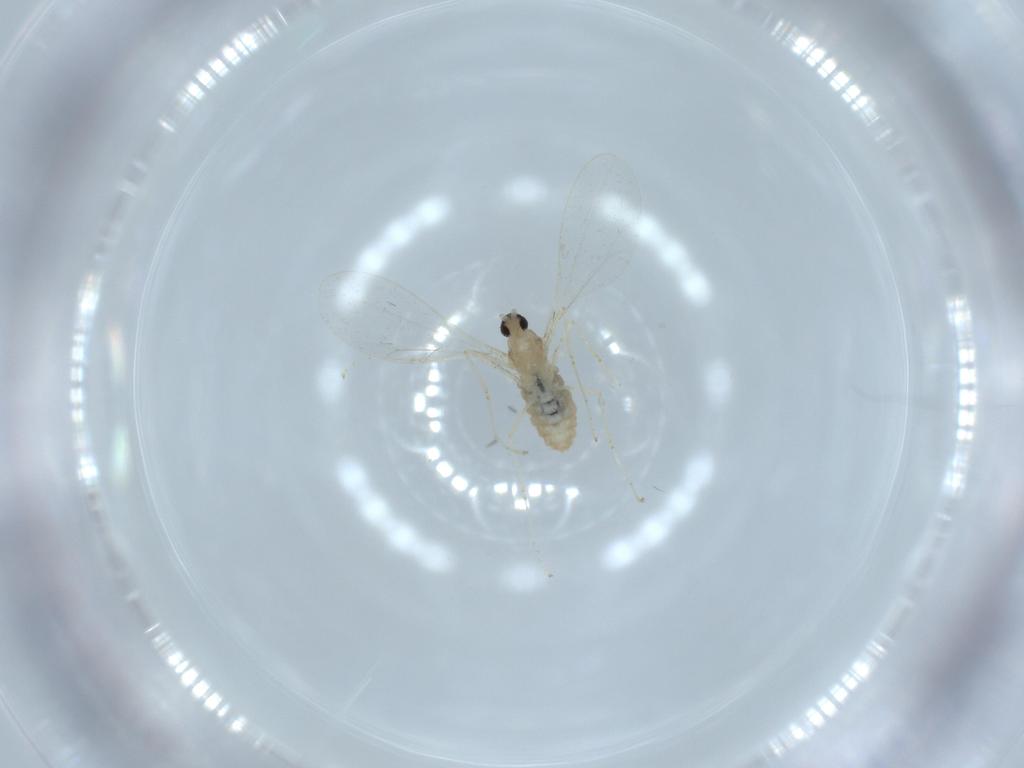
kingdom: Animalia
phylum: Arthropoda
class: Insecta
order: Diptera
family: Cecidomyiidae
